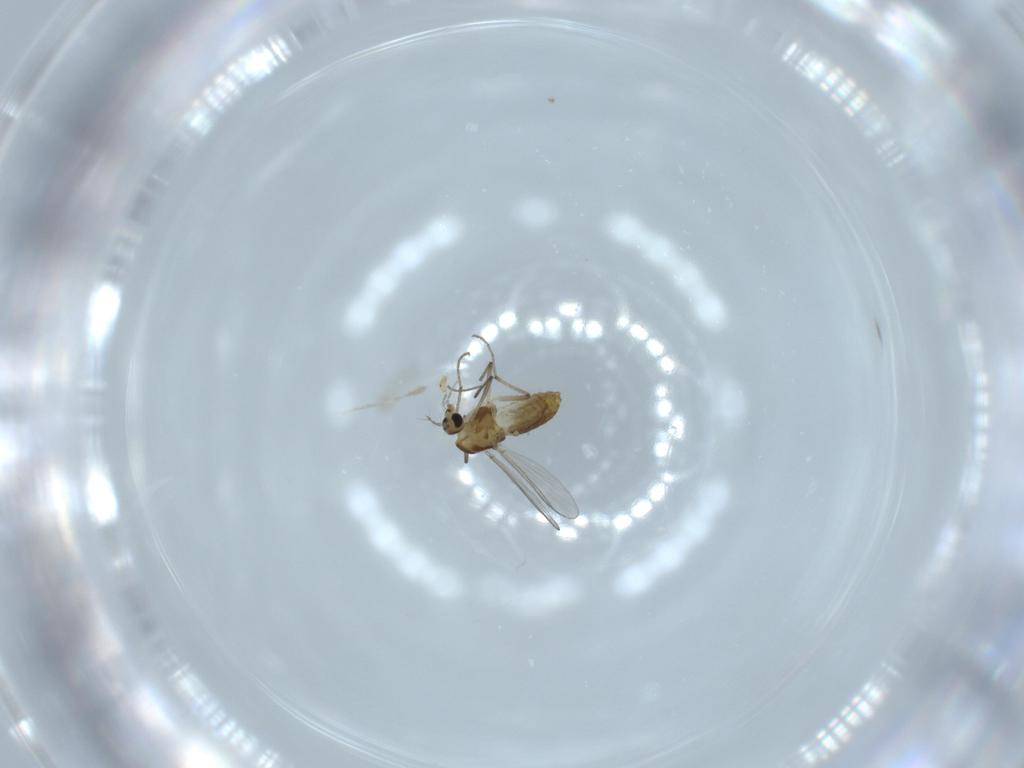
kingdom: Animalia
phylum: Arthropoda
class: Insecta
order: Diptera
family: Chironomidae
